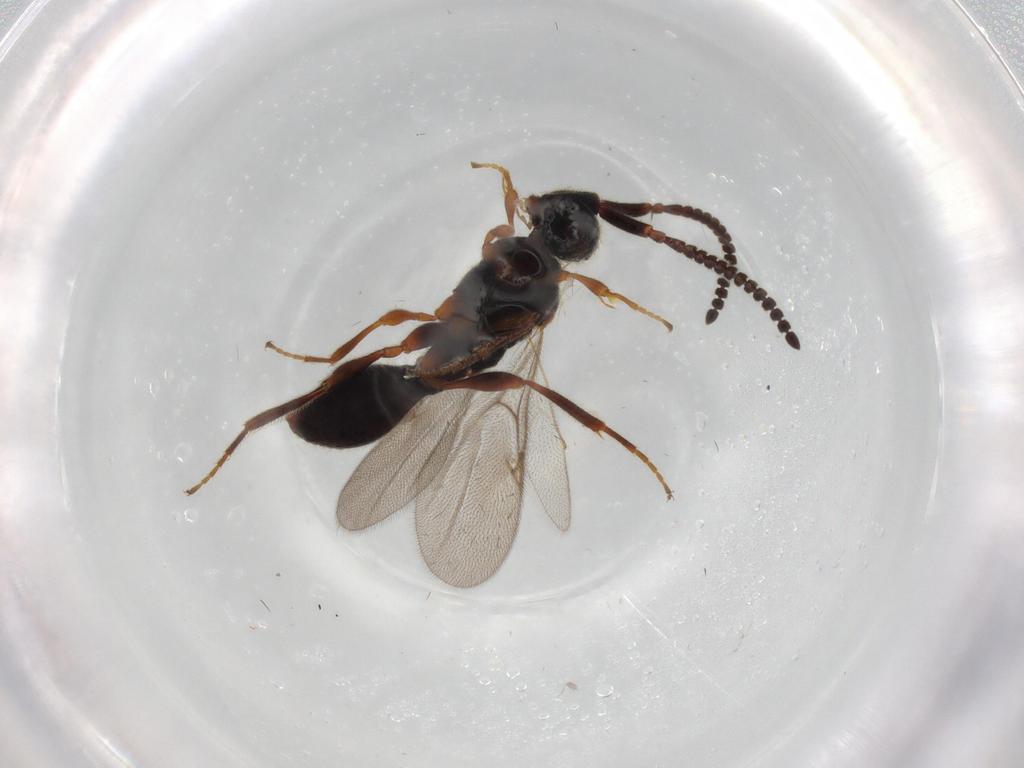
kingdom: Animalia
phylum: Arthropoda
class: Insecta
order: Hymenoptera
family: Diapriidae
